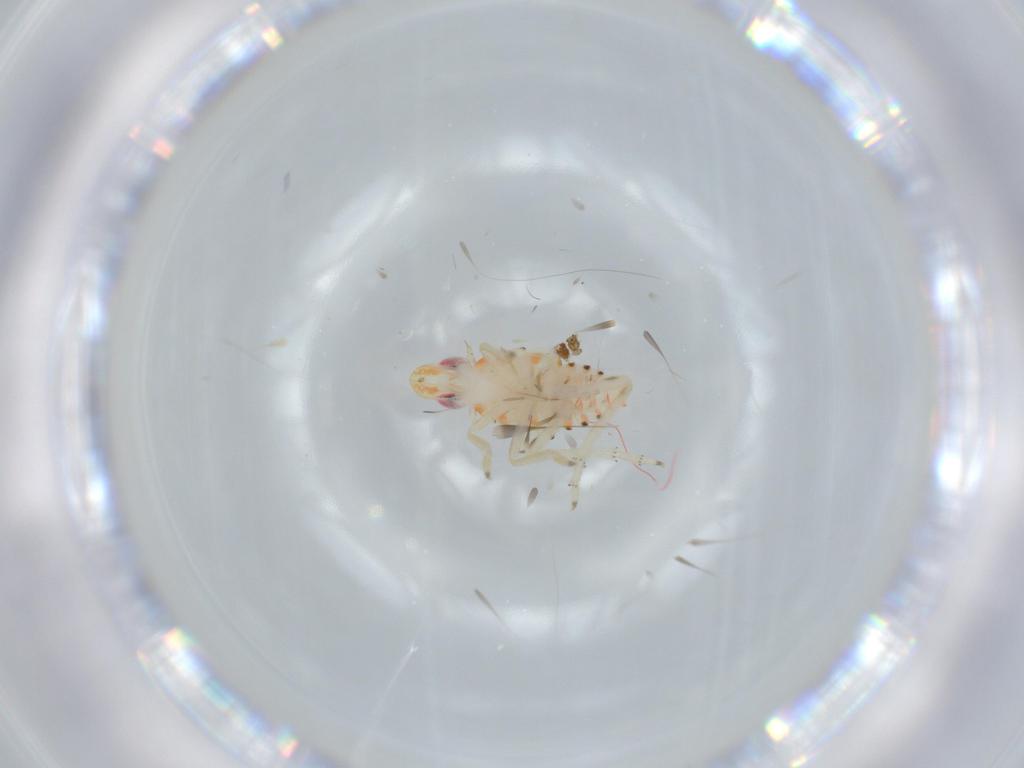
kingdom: Animalia
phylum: Arthropoda
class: Insecta
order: Hemiptera
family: Tropiduchidae
